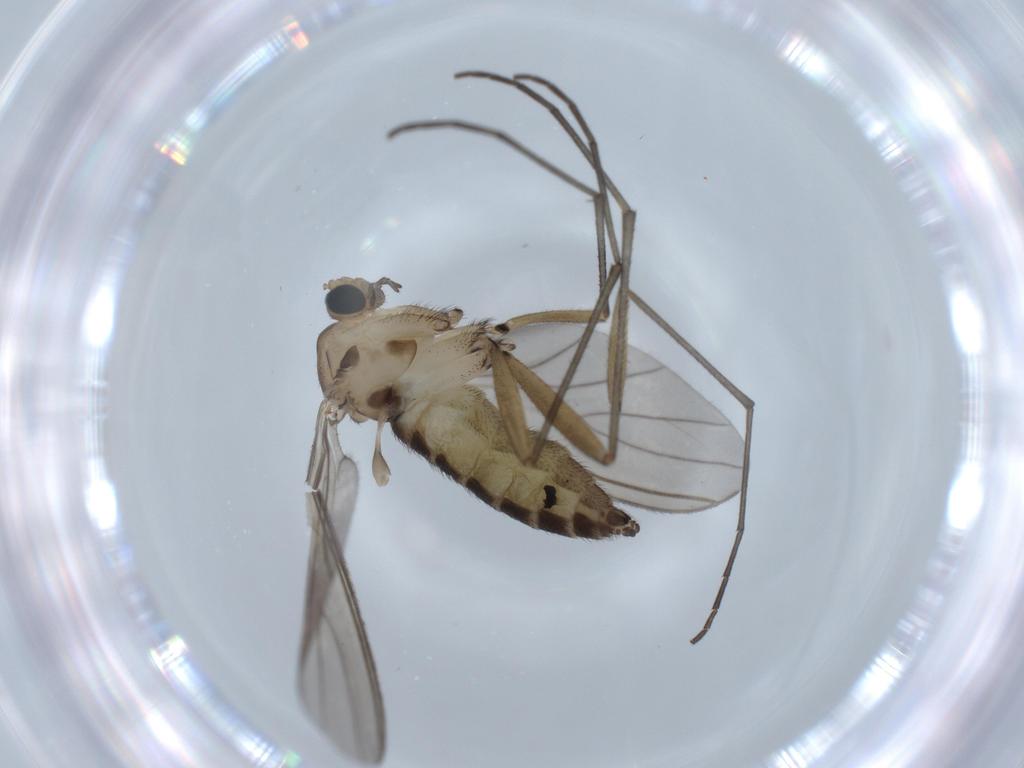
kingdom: Animalia
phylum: Arthropoda
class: Insecta
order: Diptera
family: Sciaridae
